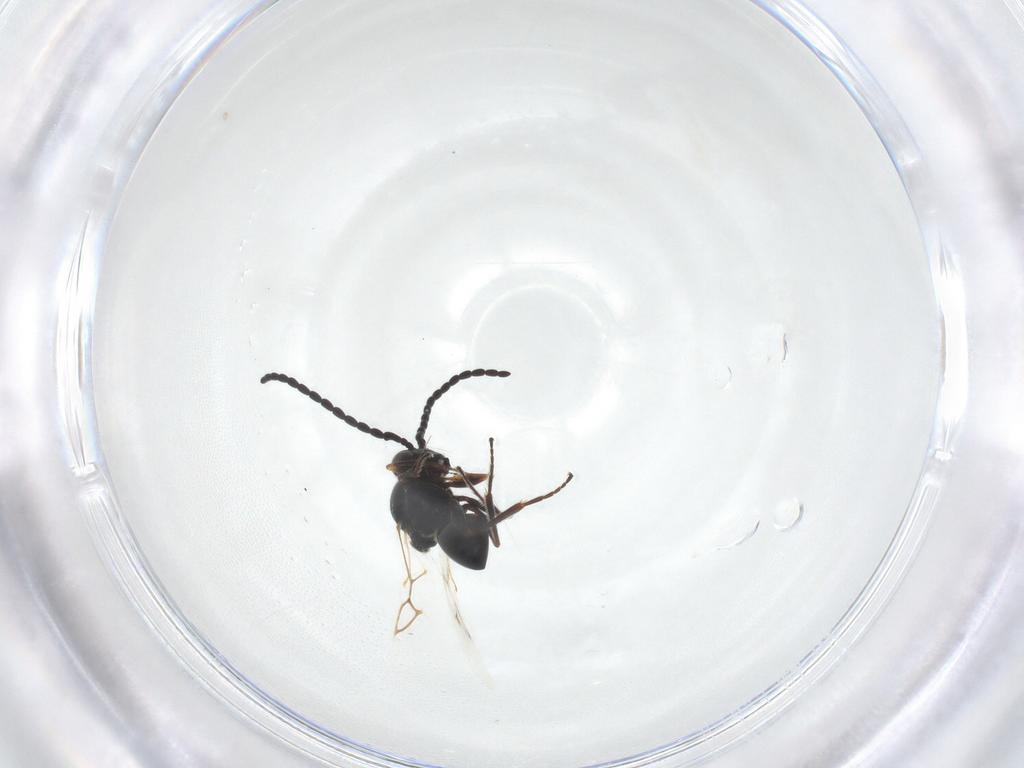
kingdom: Animalia
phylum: Arthropoda
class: Insecta
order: Hymenoptera
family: Figitidae
